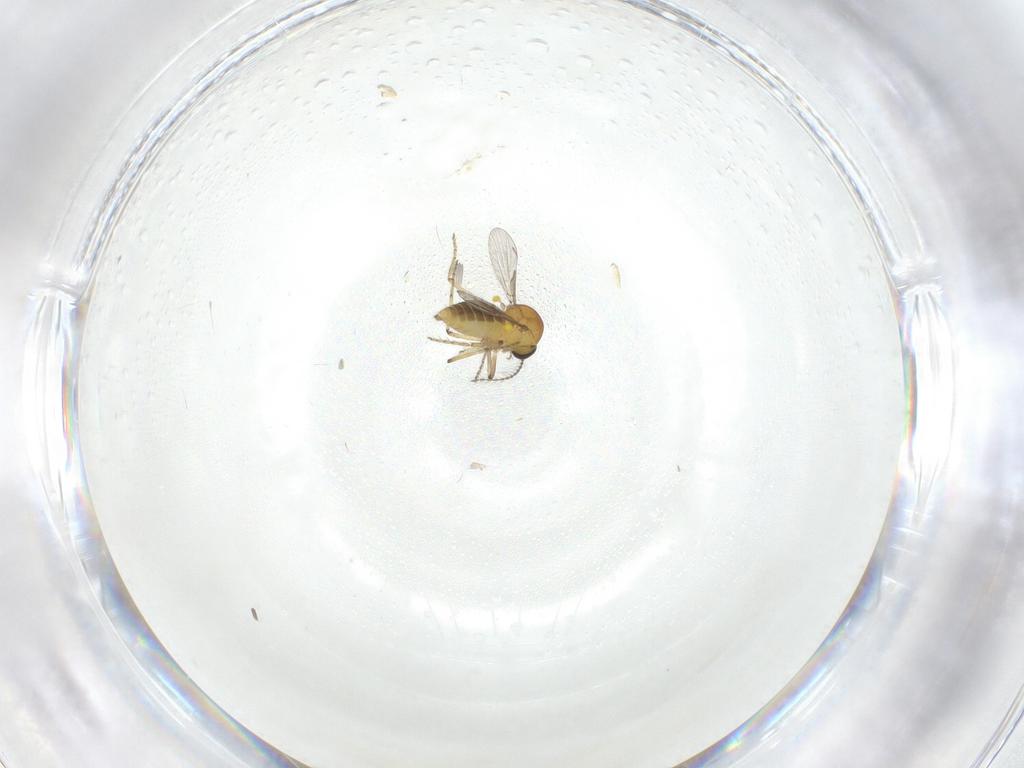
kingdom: Animalia
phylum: Arthropoda
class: Insecta
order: Diptera
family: Ceratopogonidae
